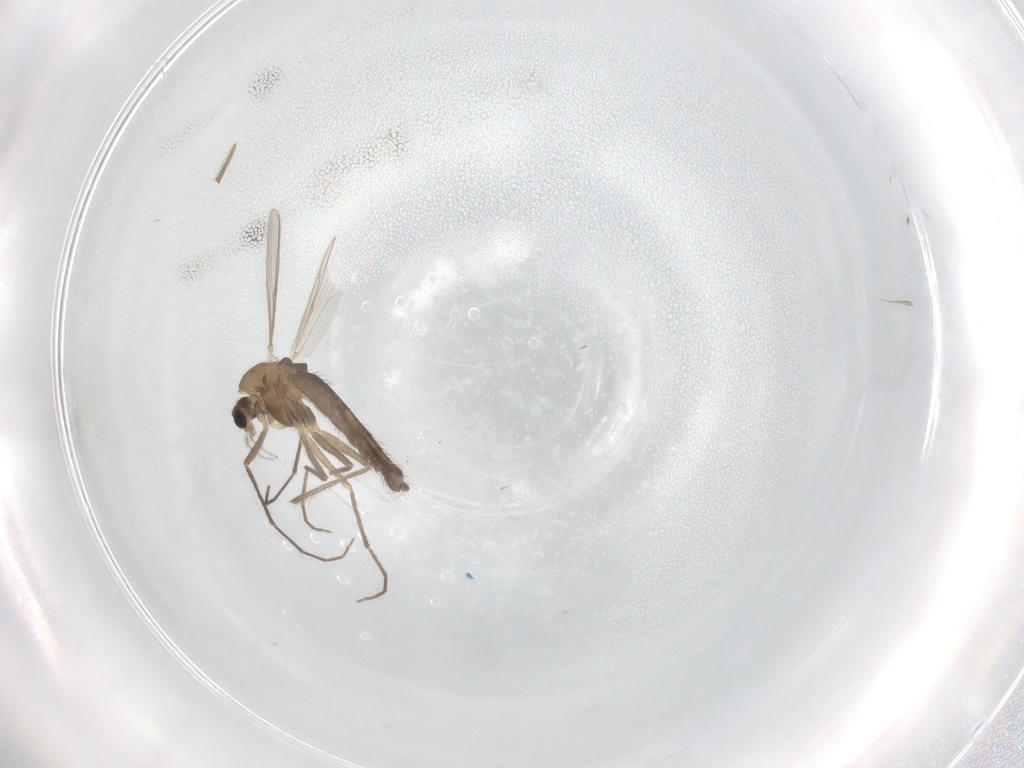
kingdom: Animalia
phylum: Arthropoda
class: Insecta
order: Diptera
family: Chironomidae
